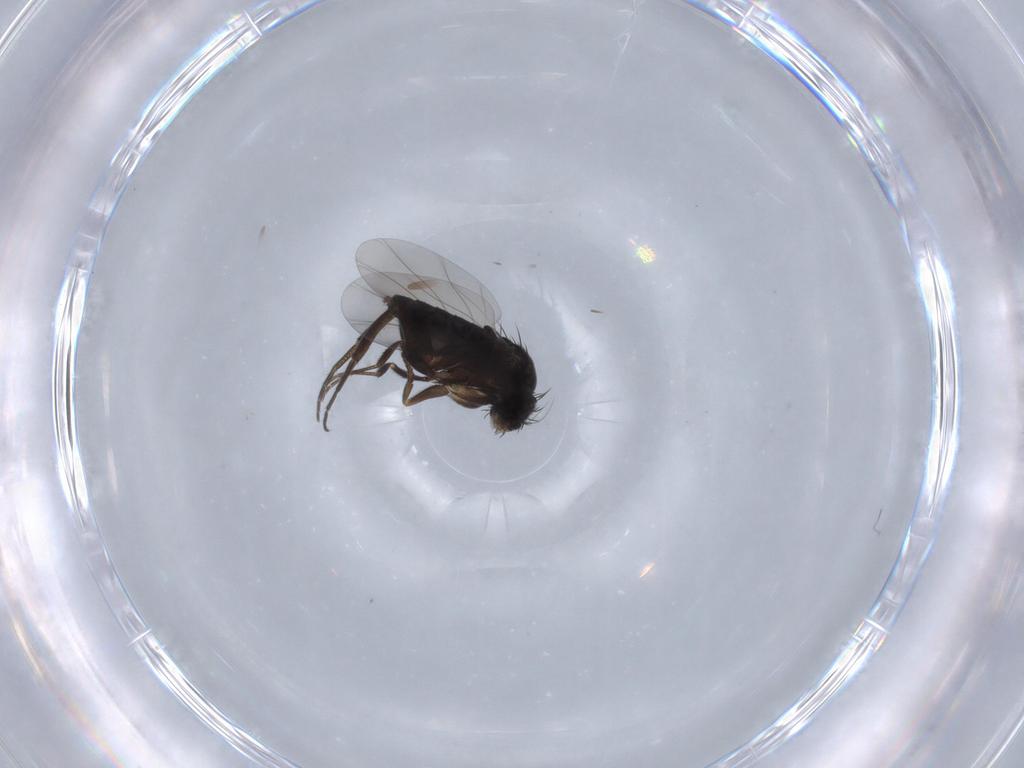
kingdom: Animalia
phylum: Arthropoda
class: Insecta
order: Diptera
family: Phoridae
